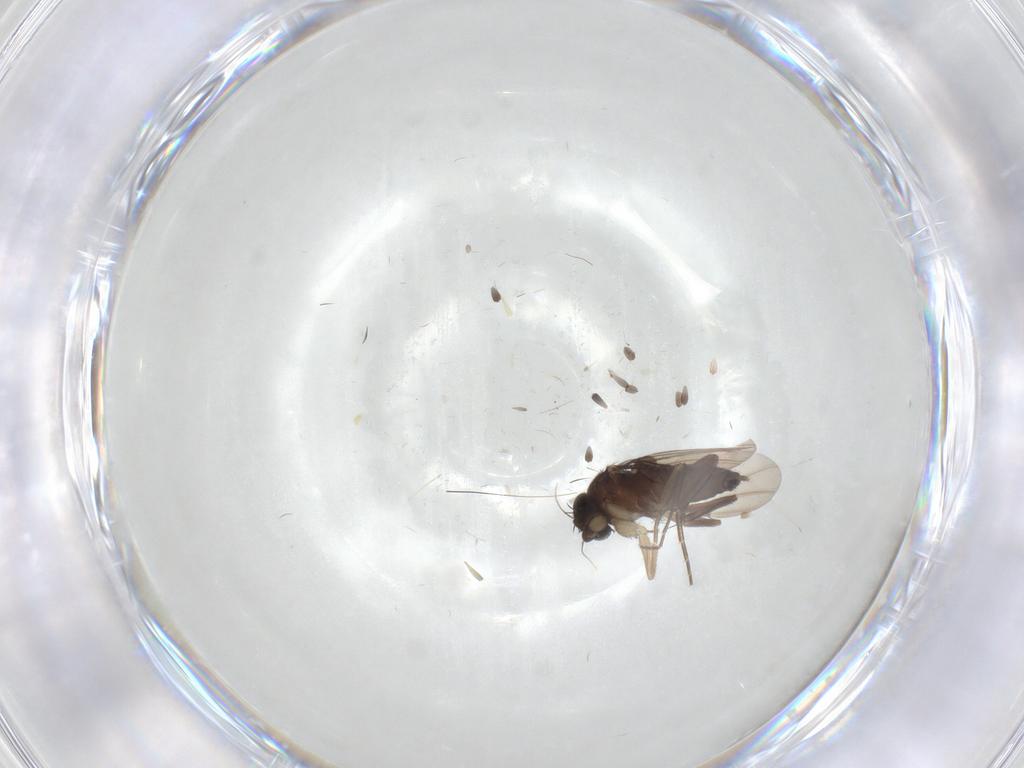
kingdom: Animalia
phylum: Arthropoda
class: Insecta
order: Diptera
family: Phoridae
